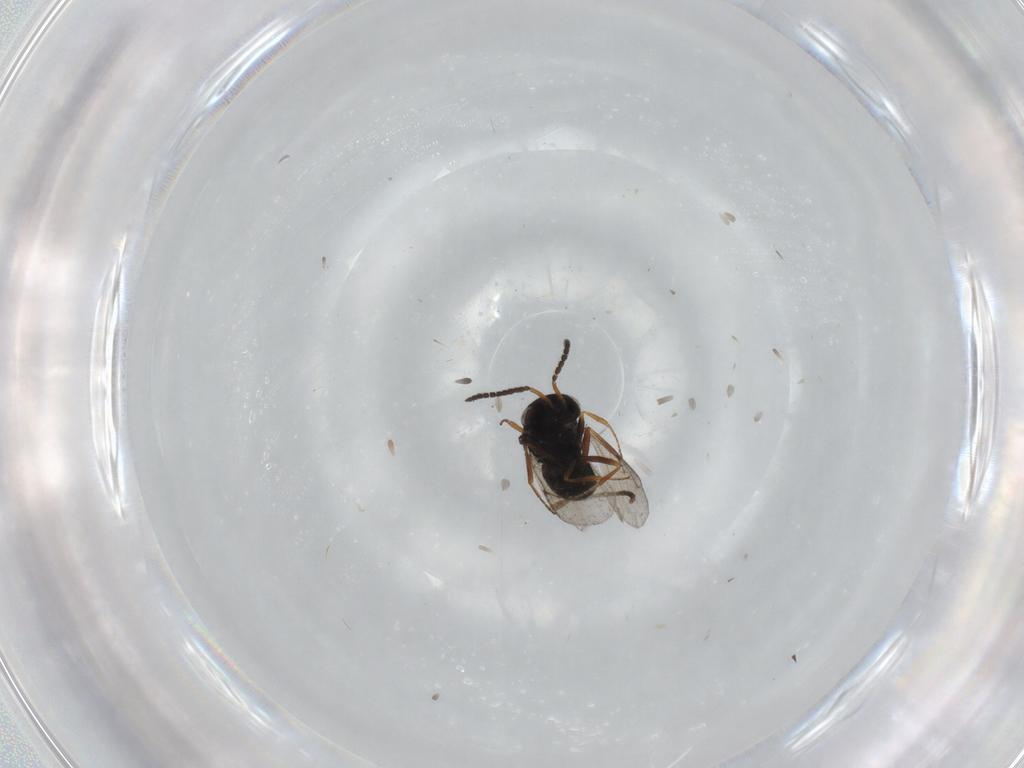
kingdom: Animalia
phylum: Arthropoda
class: Insecta
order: Hymenoptera
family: Scelionidae
